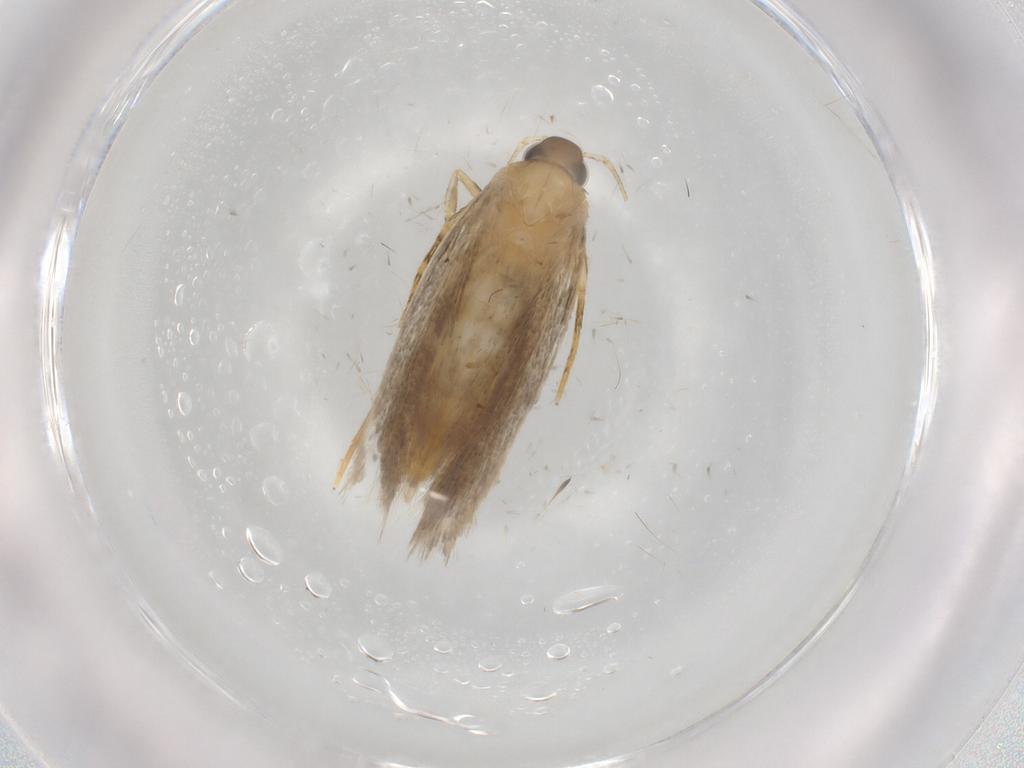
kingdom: Animalia
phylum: Arthropoda
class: Insecta
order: Lepidoptera
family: Autostichidae
